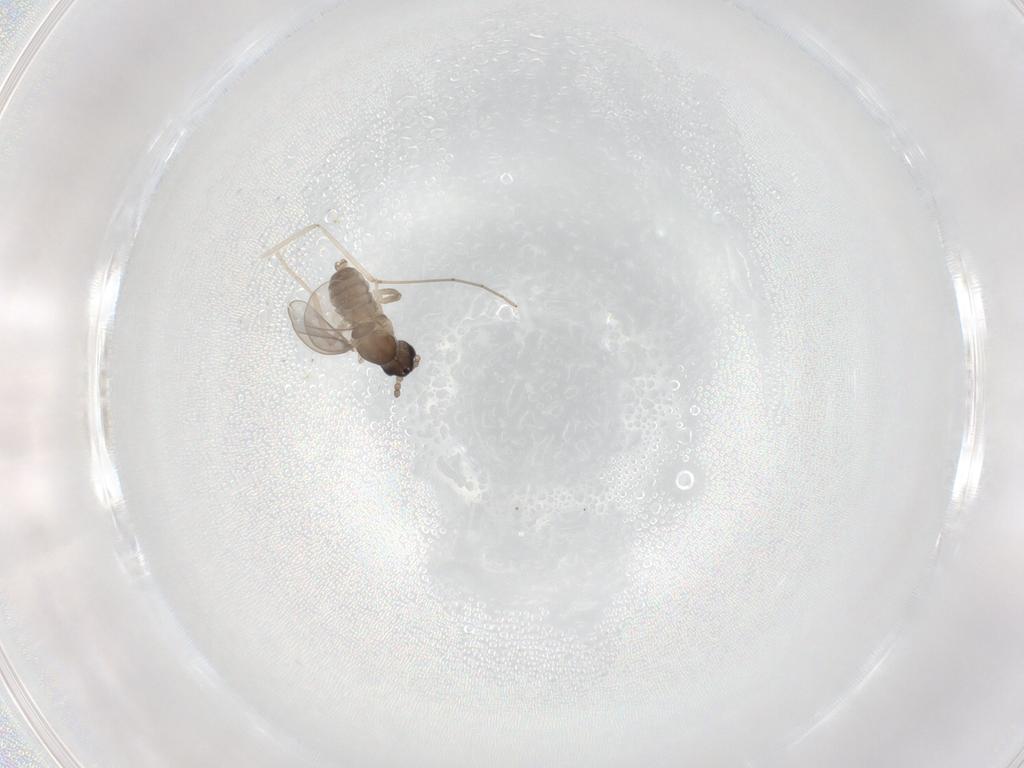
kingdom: Animalia
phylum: Arthropoda
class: Insecta
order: Diptera
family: Cecidomyiidae
